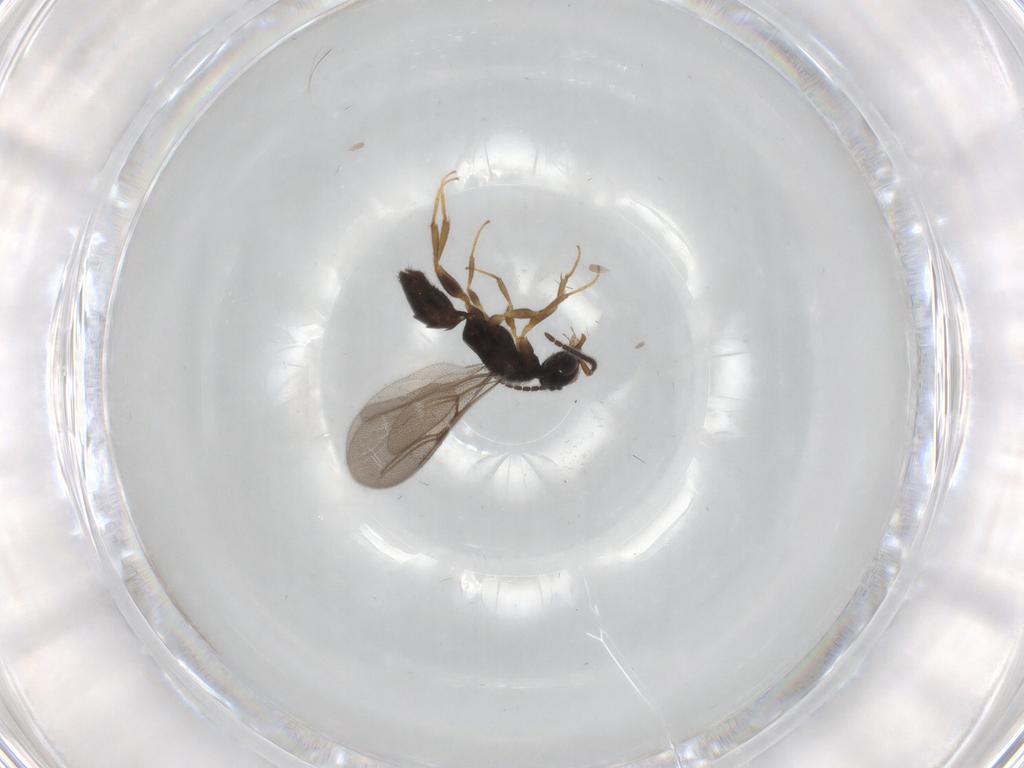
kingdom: Animalia
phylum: Arthropoda
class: Insecta
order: Hymenoptera
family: Bethylidae
